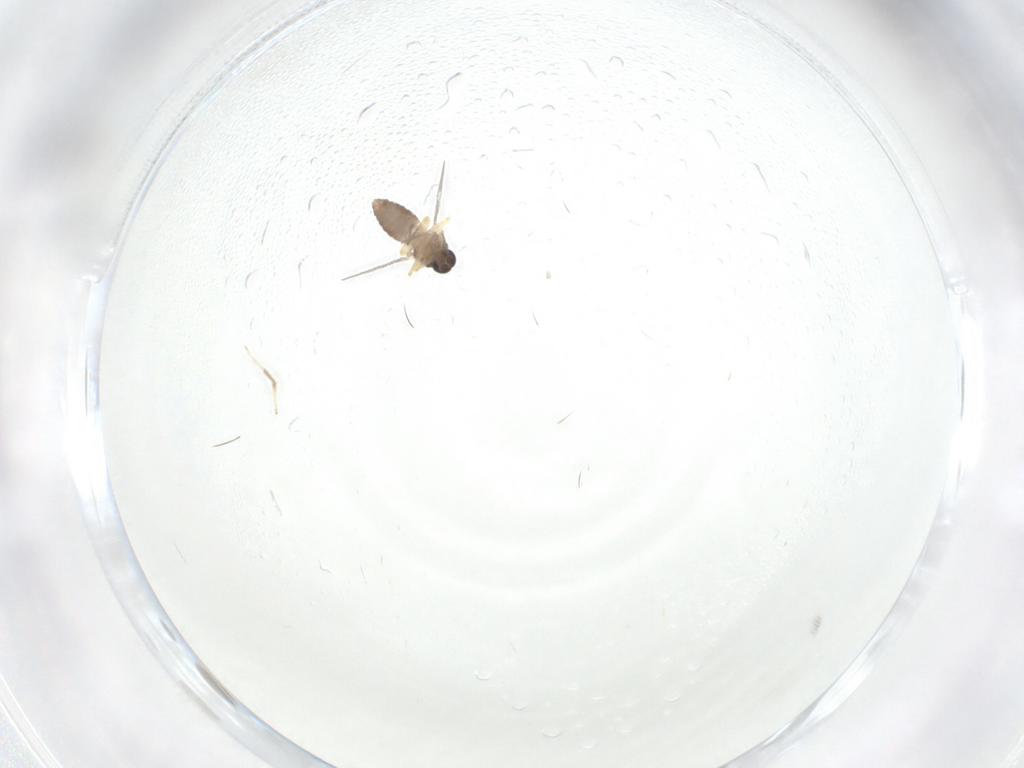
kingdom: Animalia
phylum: Arthropoda
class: Insecta
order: Diptera
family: Chironomidae
